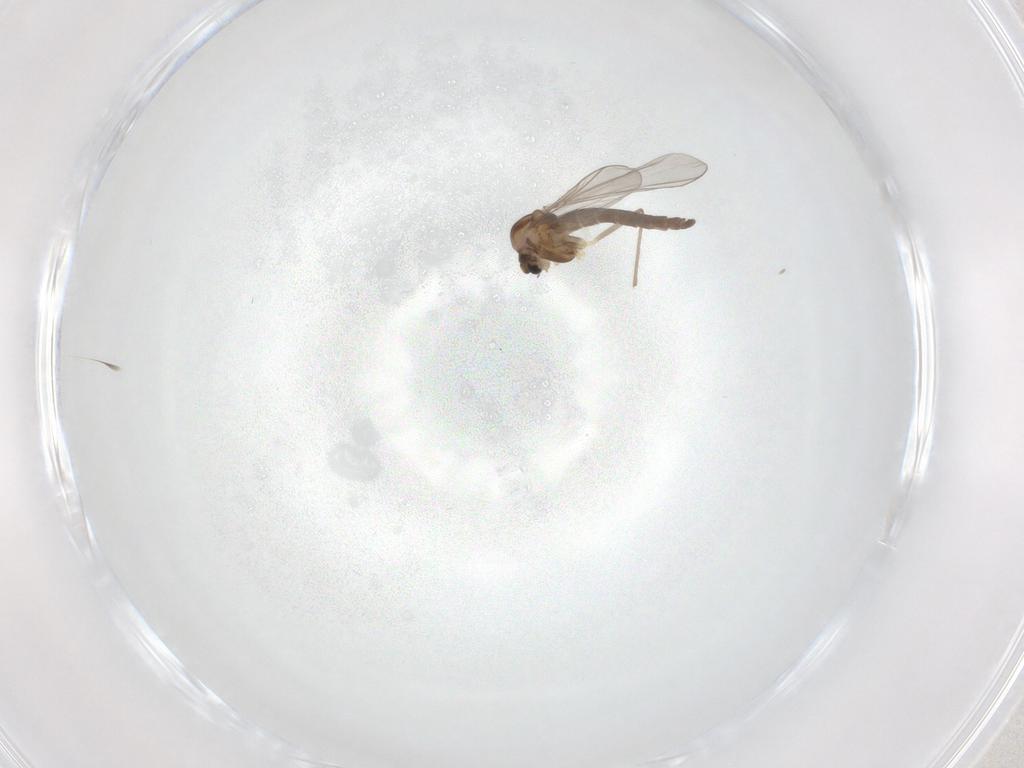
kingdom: Animalia
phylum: Arthropoda
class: Insecta
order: Diptera
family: Chironomidae
